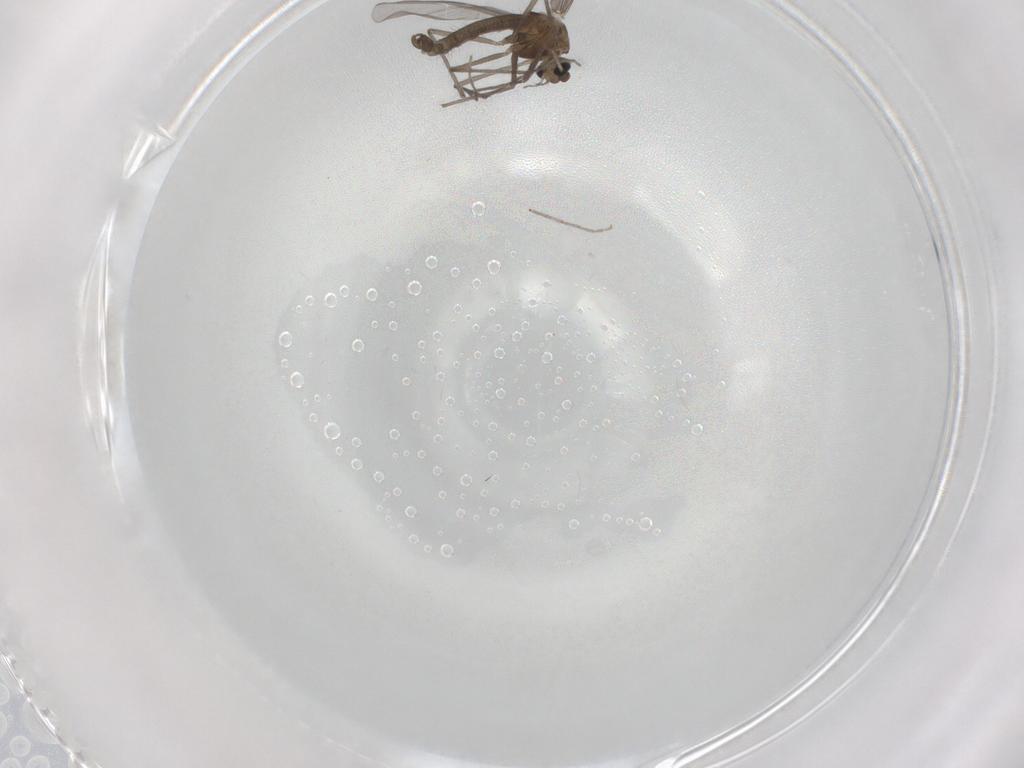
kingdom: Animalia
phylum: Arthropoda
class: Insecta
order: Diptera
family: Chironomidae
